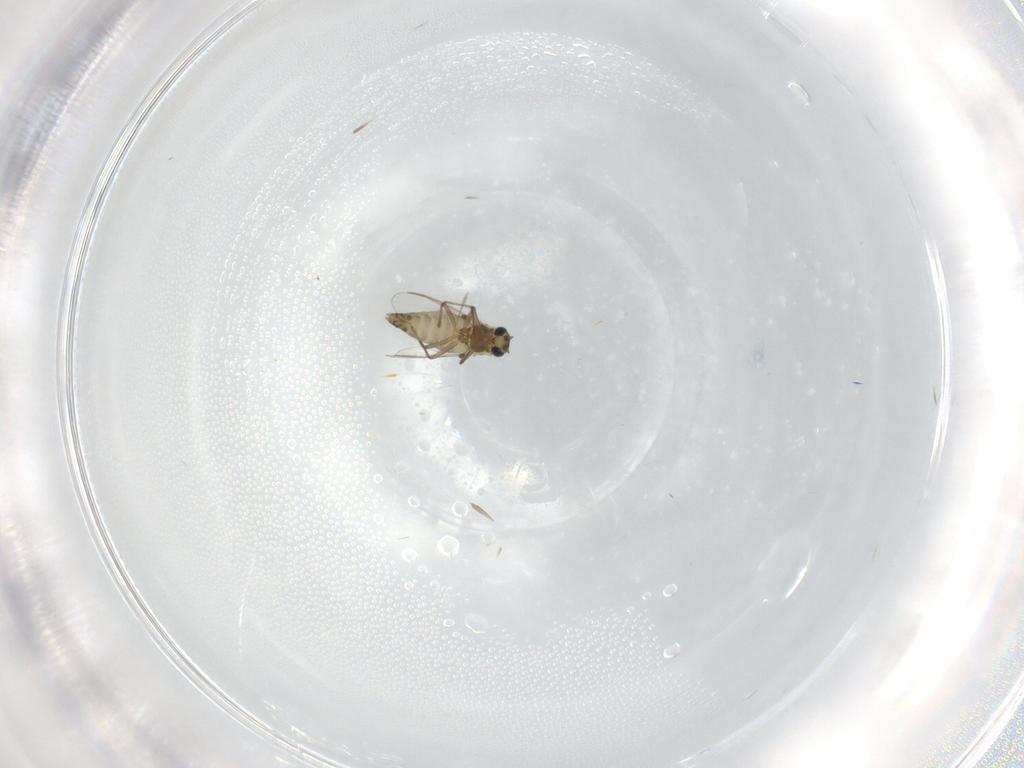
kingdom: Animalia
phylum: Arthropoda
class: Insecta
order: Diptera
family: Chironomidae
